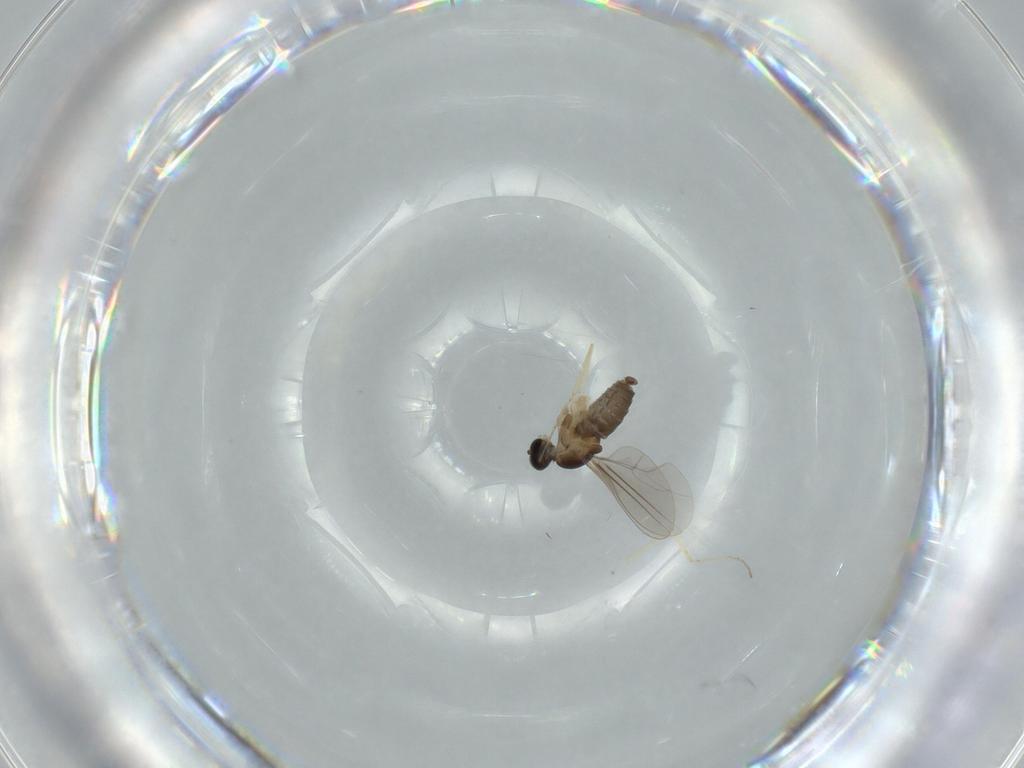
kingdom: Animalia
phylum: Arthropoda
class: Insecta
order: Diptera
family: Cecidomyiidae
